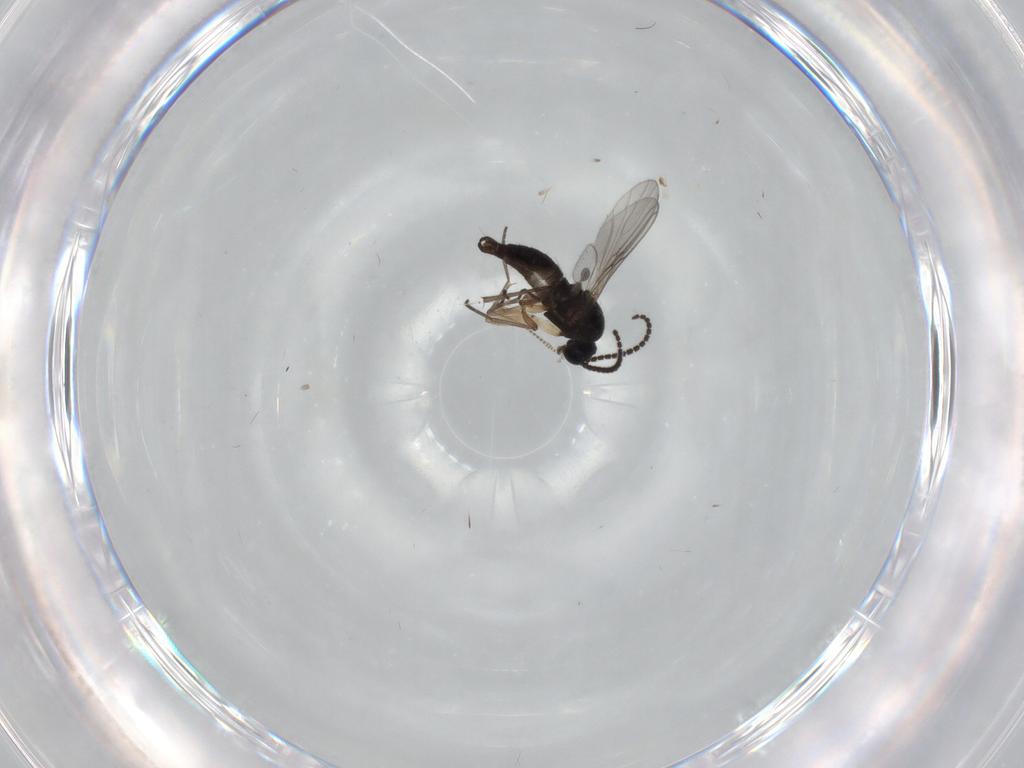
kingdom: Animalia
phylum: Arthropoda
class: Insecta
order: Diptera
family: Sciaridae
